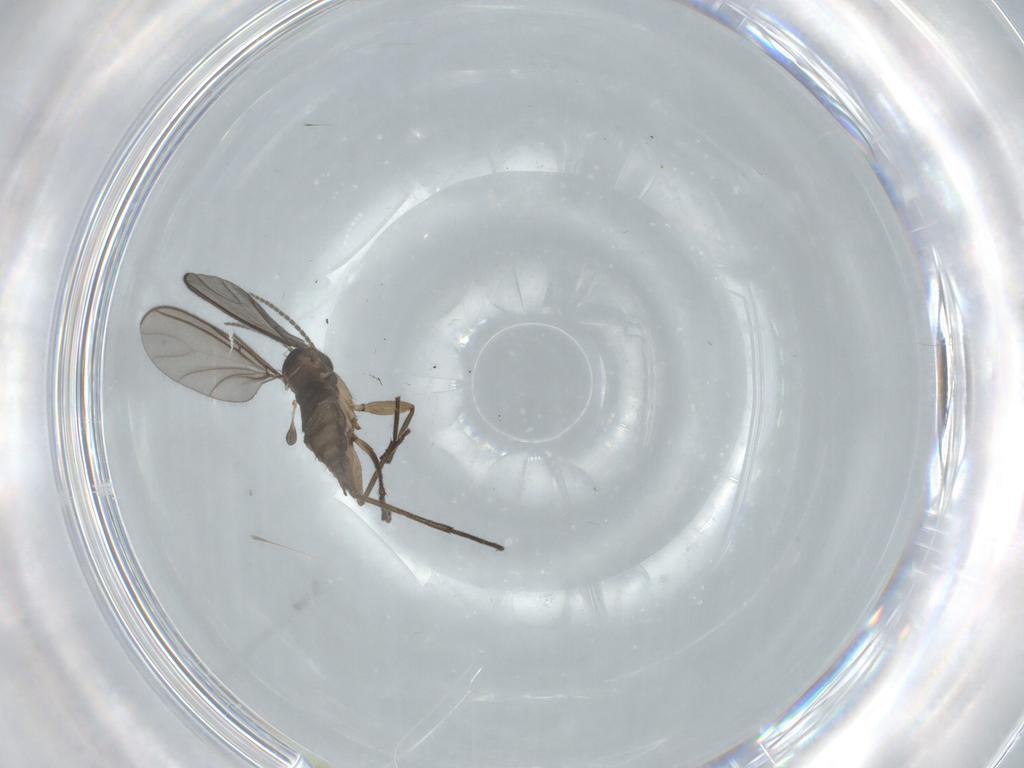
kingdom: Animalia
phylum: Arthropoda
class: Insecta
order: Diptera
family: Sciaridae
